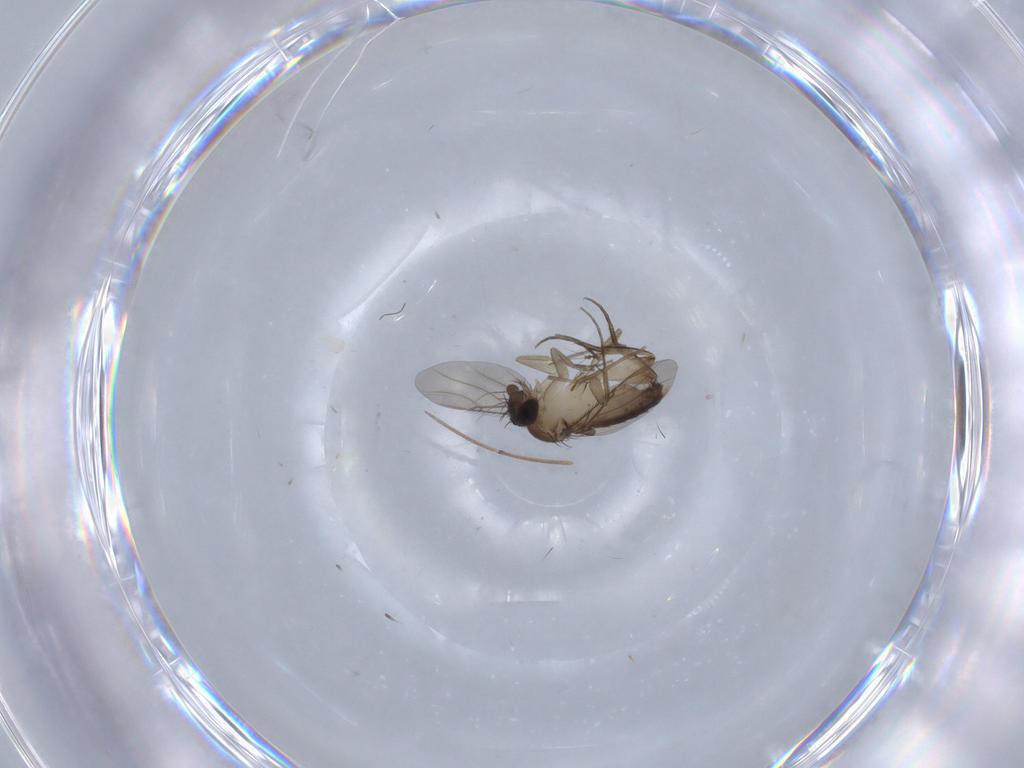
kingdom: Animalia
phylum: Arthropoda
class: Insecta
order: Diptera
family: Phoridae
